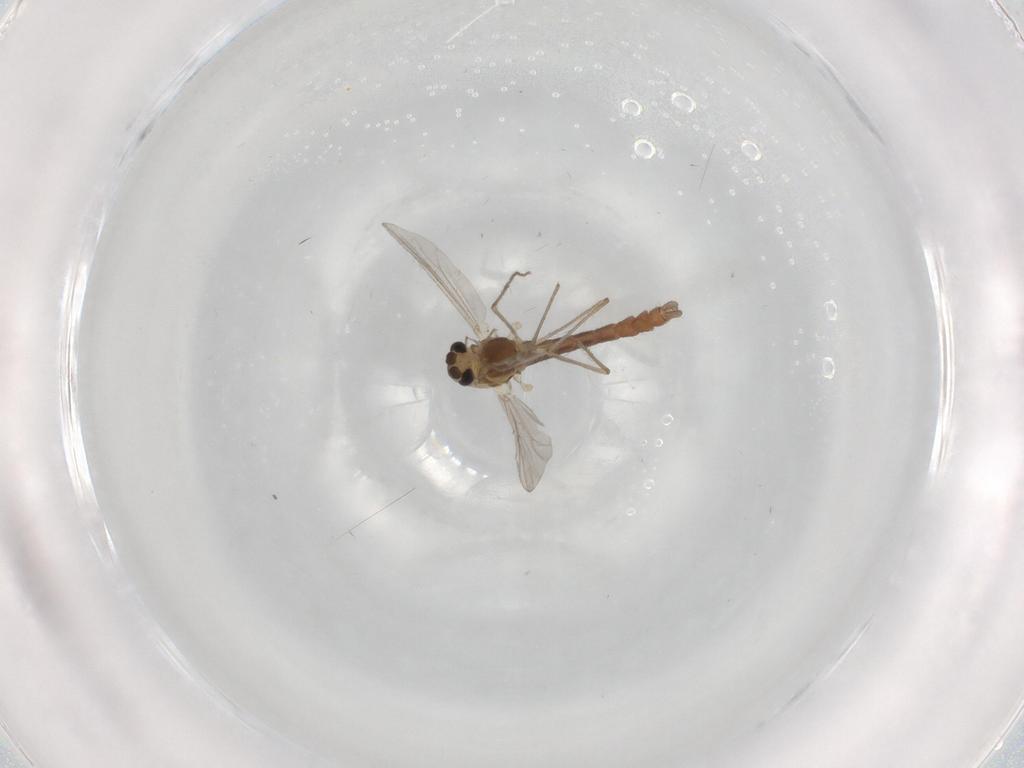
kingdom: Animalia
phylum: Arthropoda
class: Insecta
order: Diptera
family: Chironomidae
